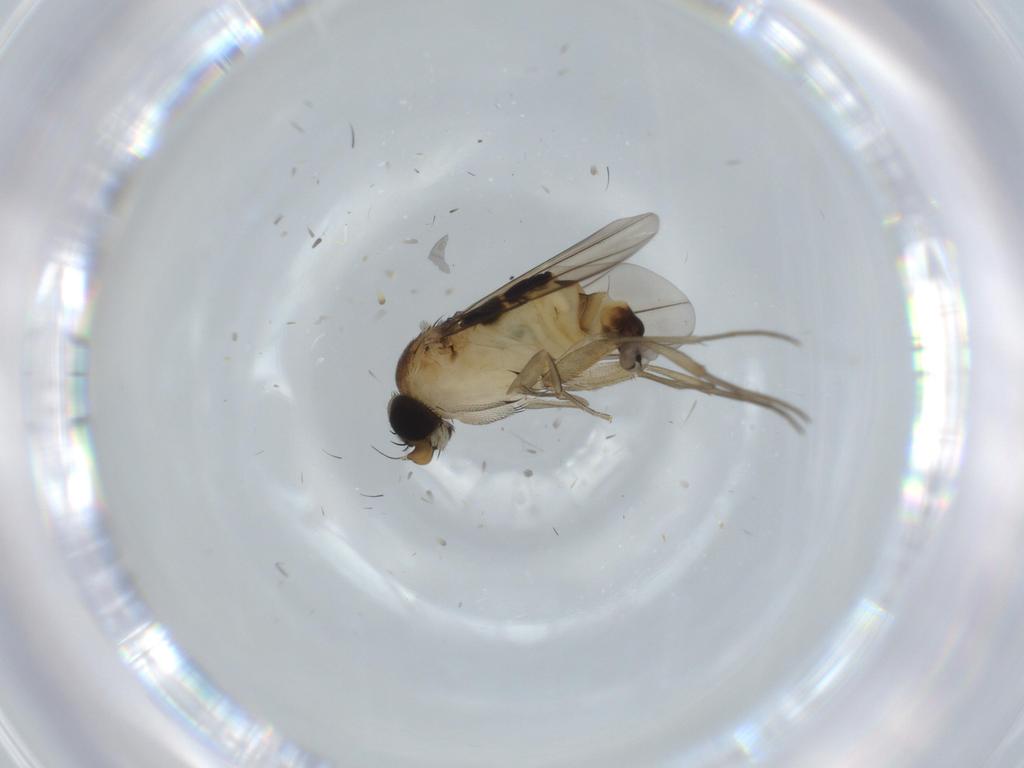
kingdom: Animalia
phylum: Arthropoda
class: Insecta
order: Diptera
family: Phoridae
